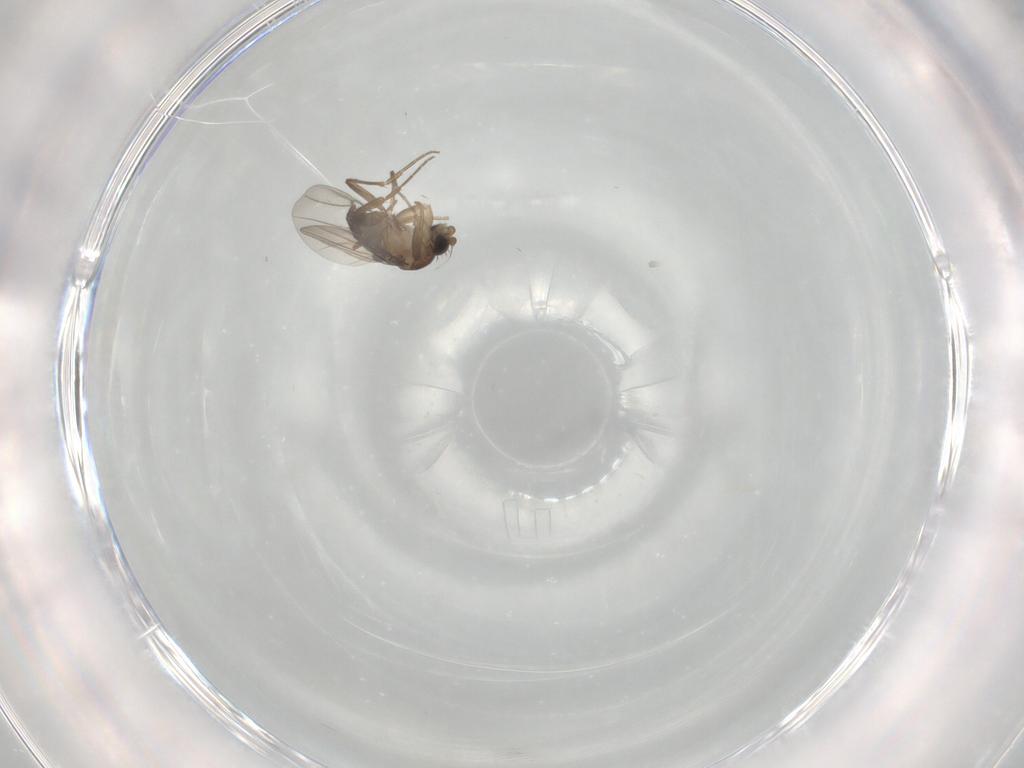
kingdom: Animalia
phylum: Arthropoda
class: Insecta
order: Diptera
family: Phoridae
